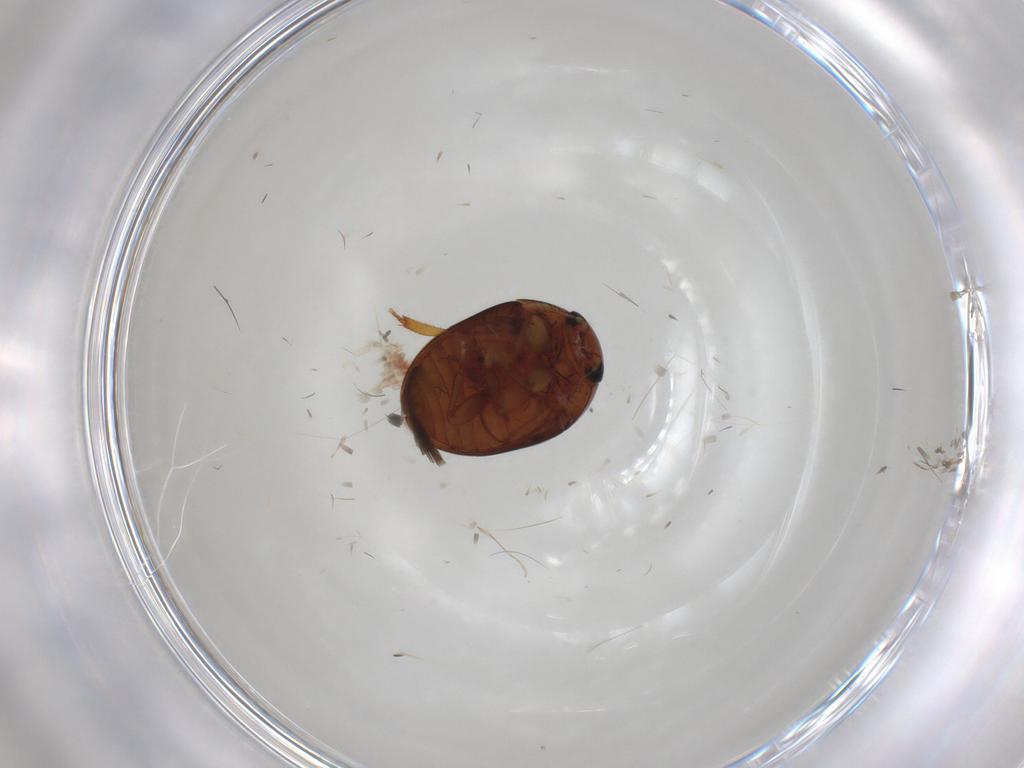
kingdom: Animalia
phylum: Arthropoda
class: Insecta
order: Coleoptera
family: Phalacridae
